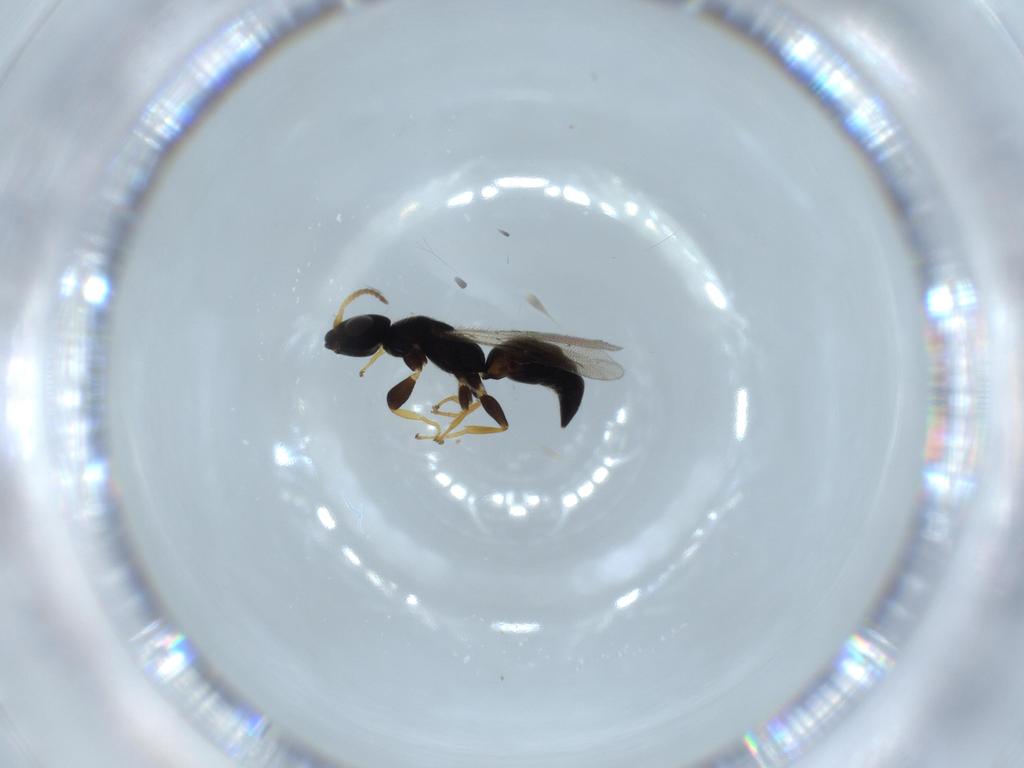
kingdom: Animalia
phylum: Arthropoda
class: Insecta
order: Hymenoptera
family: Bethylidae
